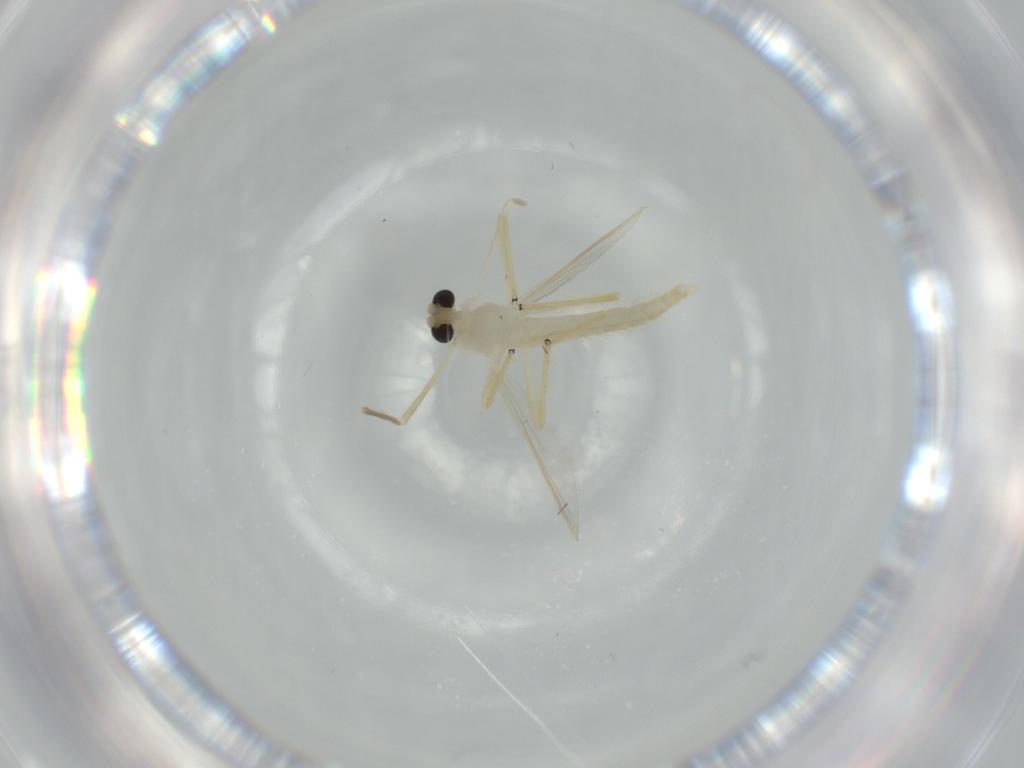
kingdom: Animalia
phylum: Arthropoda
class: Insecta
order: Diptera
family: Chironomidae
